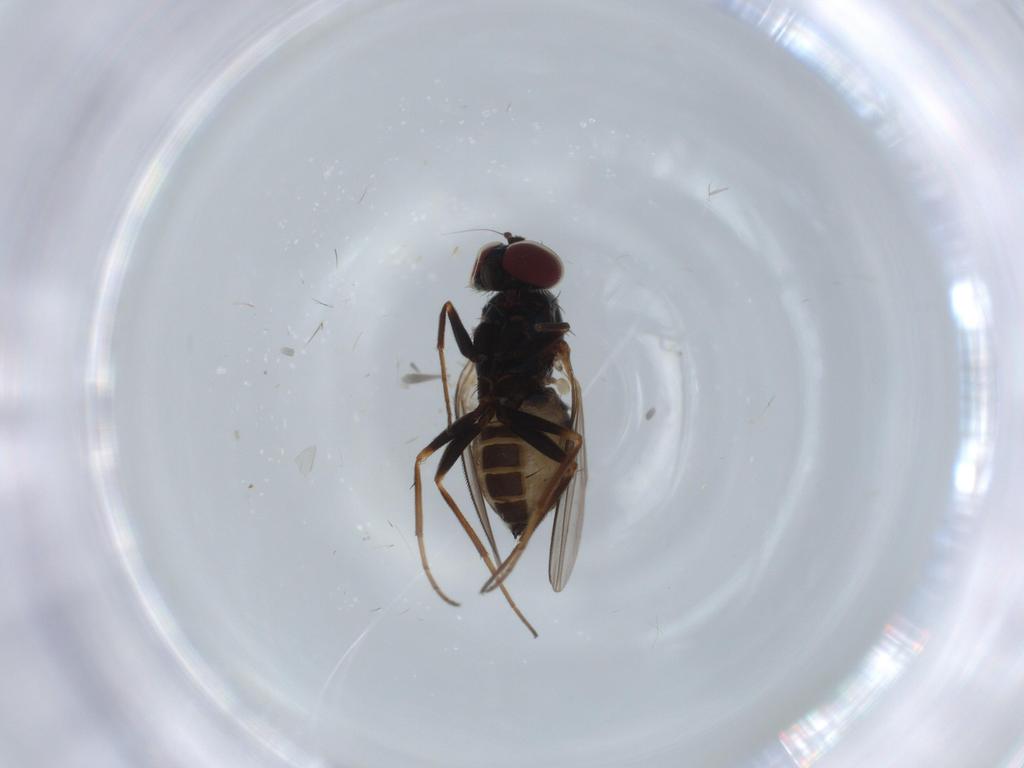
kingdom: Animalia
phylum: Arthropoda
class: Insecta
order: Diptera
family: Dolichopodidae
